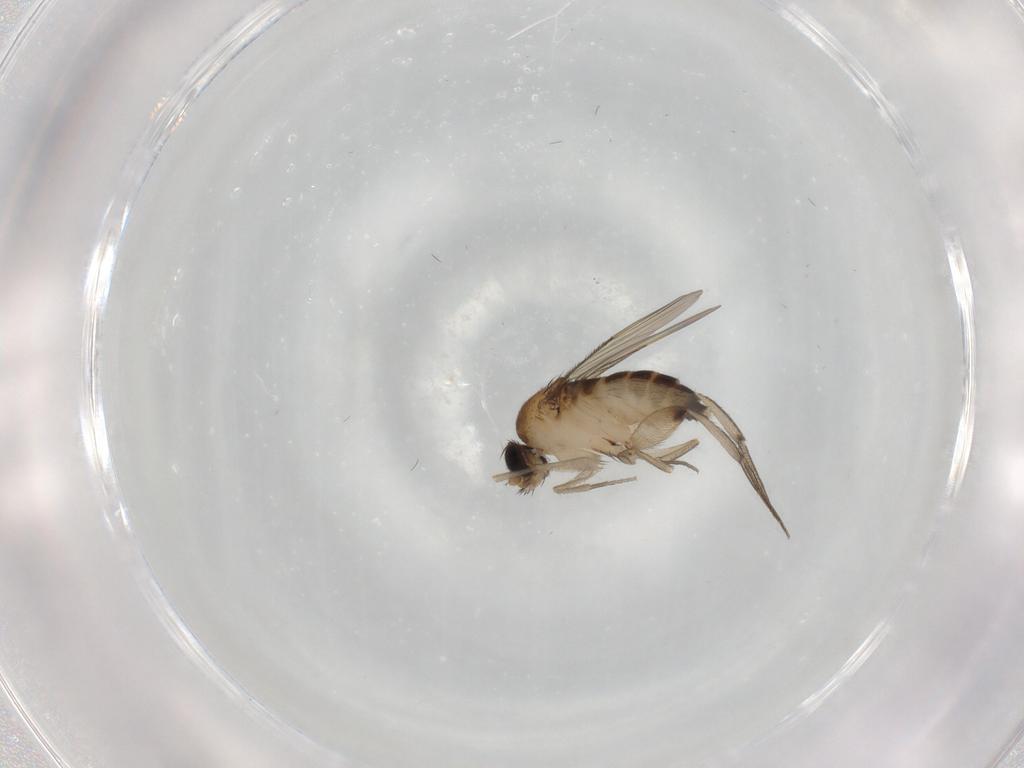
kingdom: Animalia
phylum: Arthropoda
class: Insecta
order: Diptera
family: Phoridae
